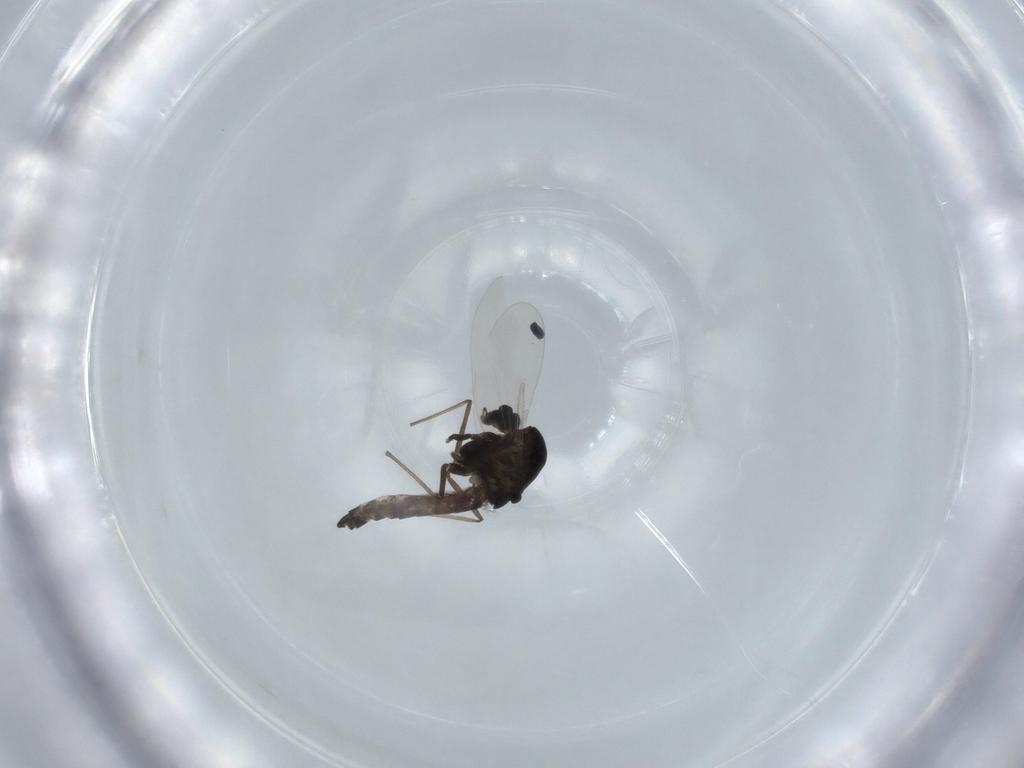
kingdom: Animalia
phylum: Arthropoda
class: Insecta
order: Diptera
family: Chironomidae
